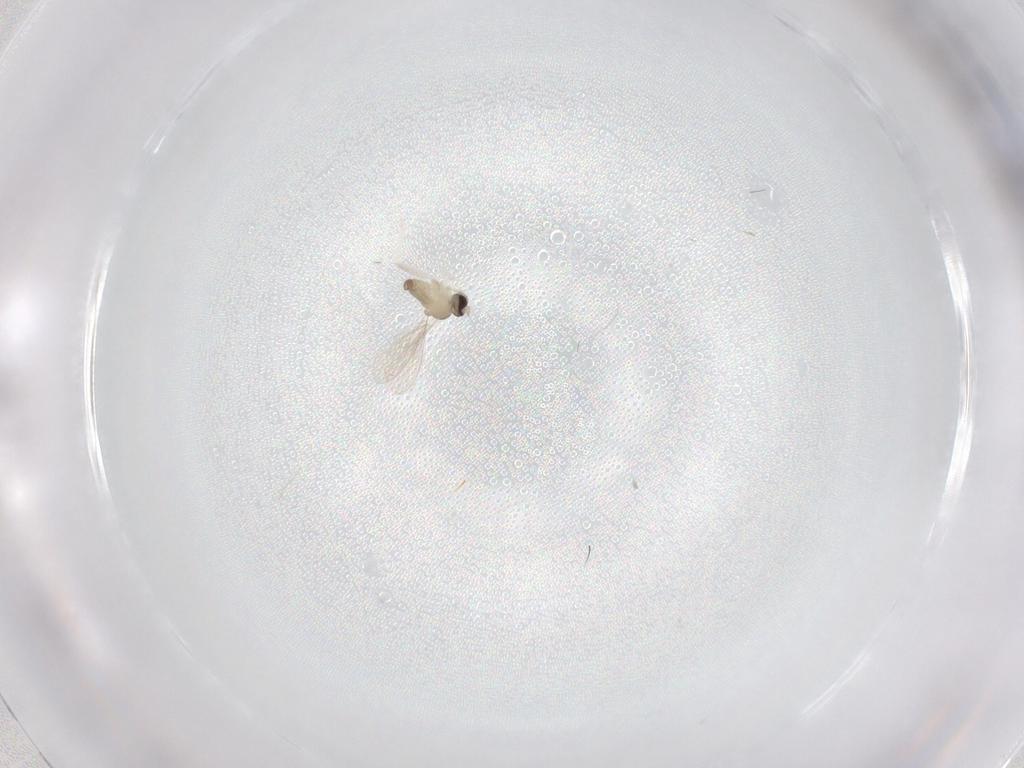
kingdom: Animalia
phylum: Arthropoda
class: Insecta
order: Diptera
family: Cecidomyiidae
